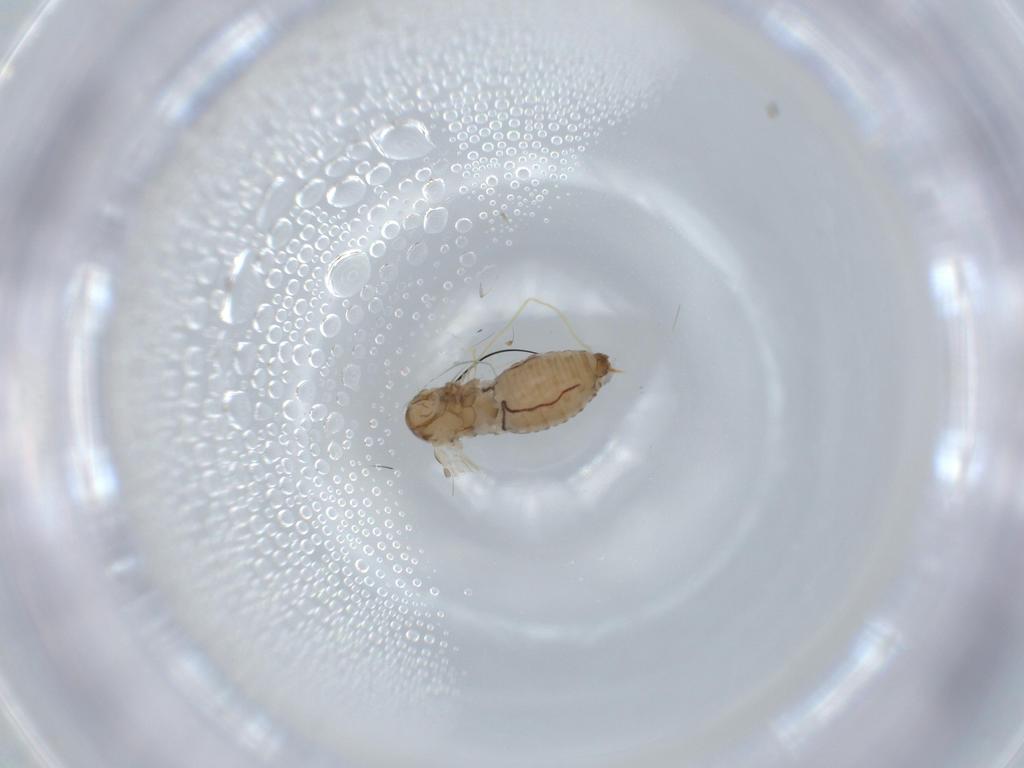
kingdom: Animalia
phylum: Arthropoda
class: Insecta
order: Diptera
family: Psychodidae
